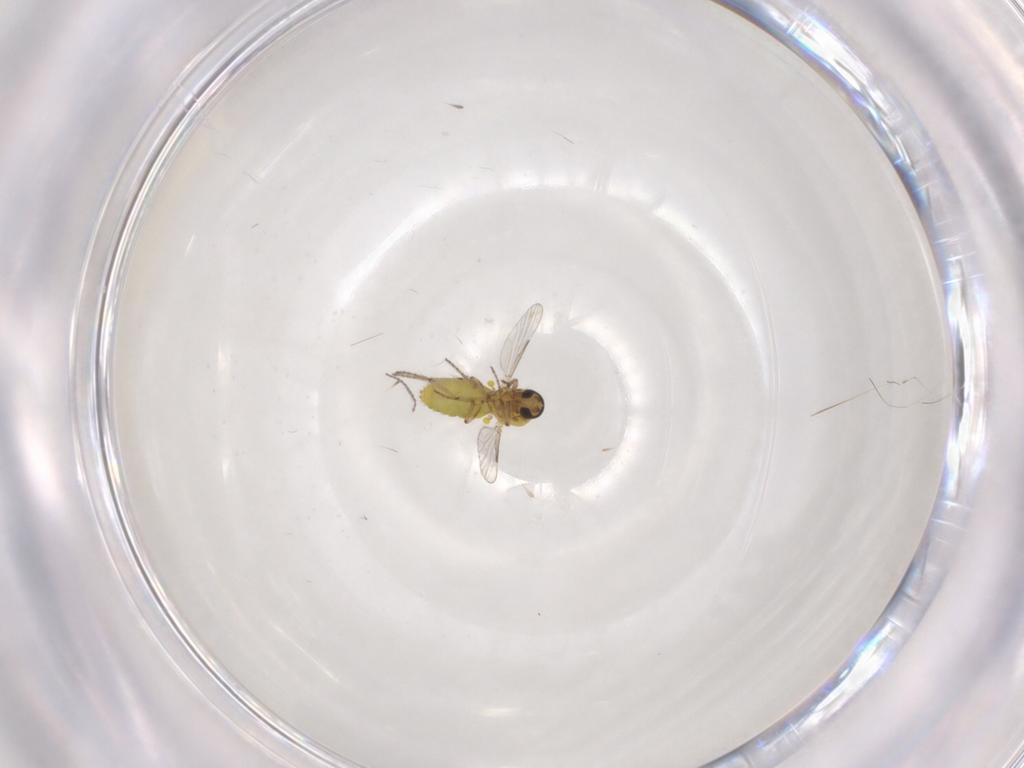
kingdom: Animalia
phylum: Arthropoda
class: Insecta
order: Diptera
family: Ceratopogonidae
